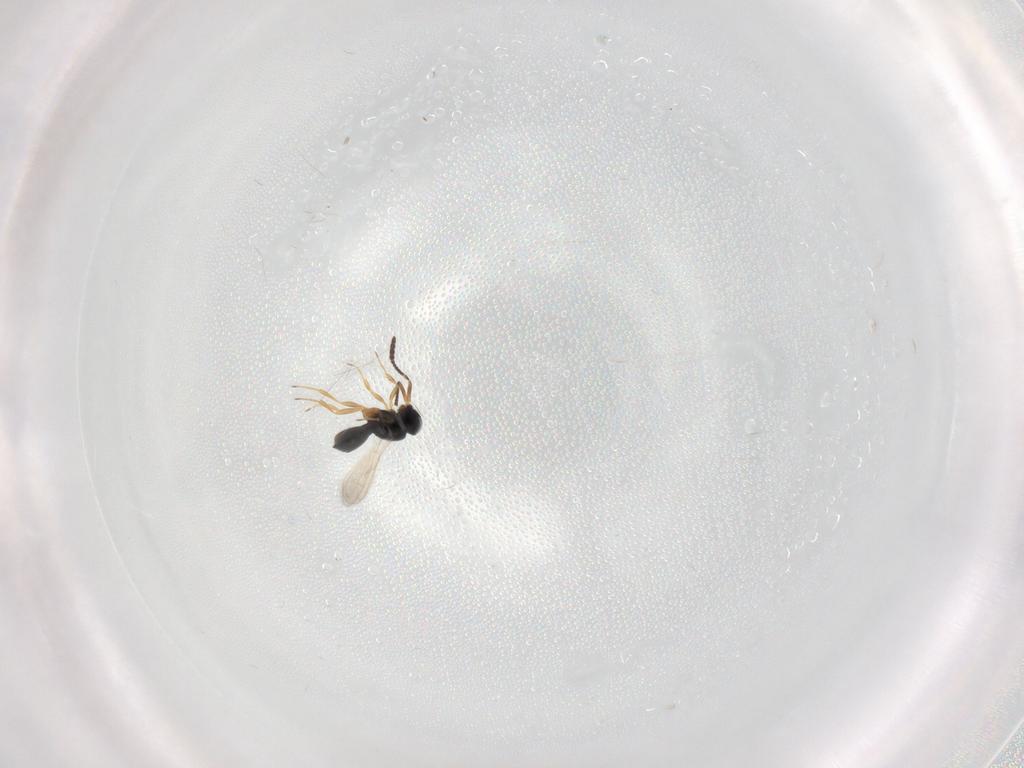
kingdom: Animalia
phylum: Arthropoda
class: Insecta
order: Hymenoptera
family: Scelionidae
